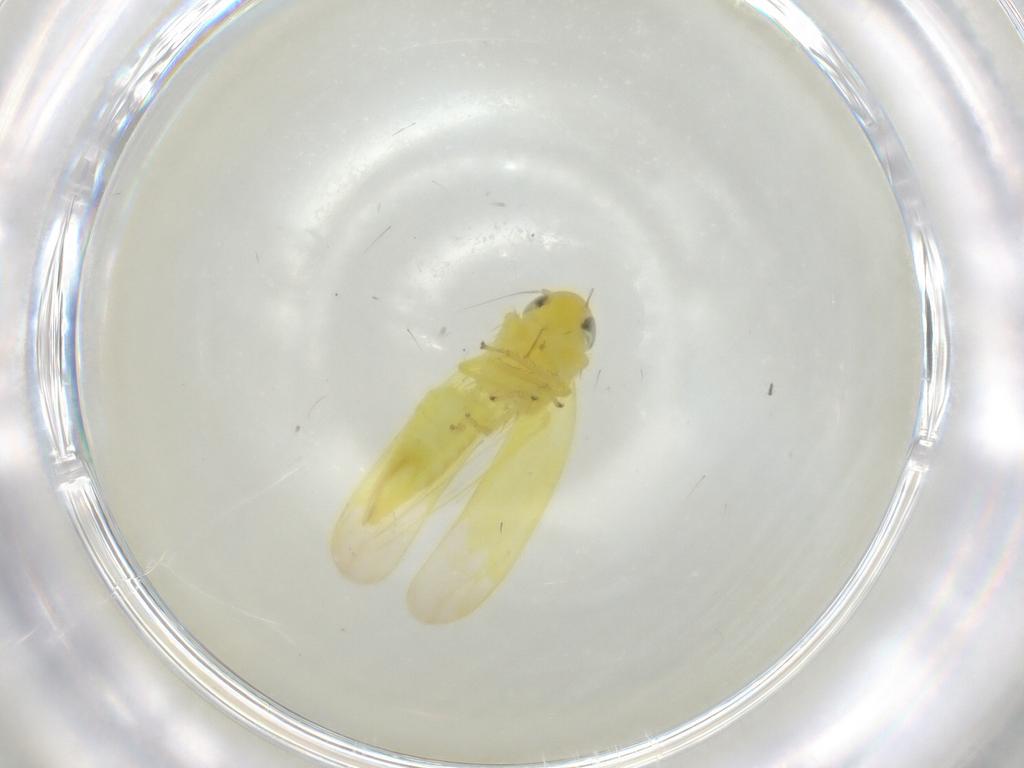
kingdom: Animalia
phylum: Arthropoda
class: Insecta
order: Hemiptera
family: Cicadellidae
